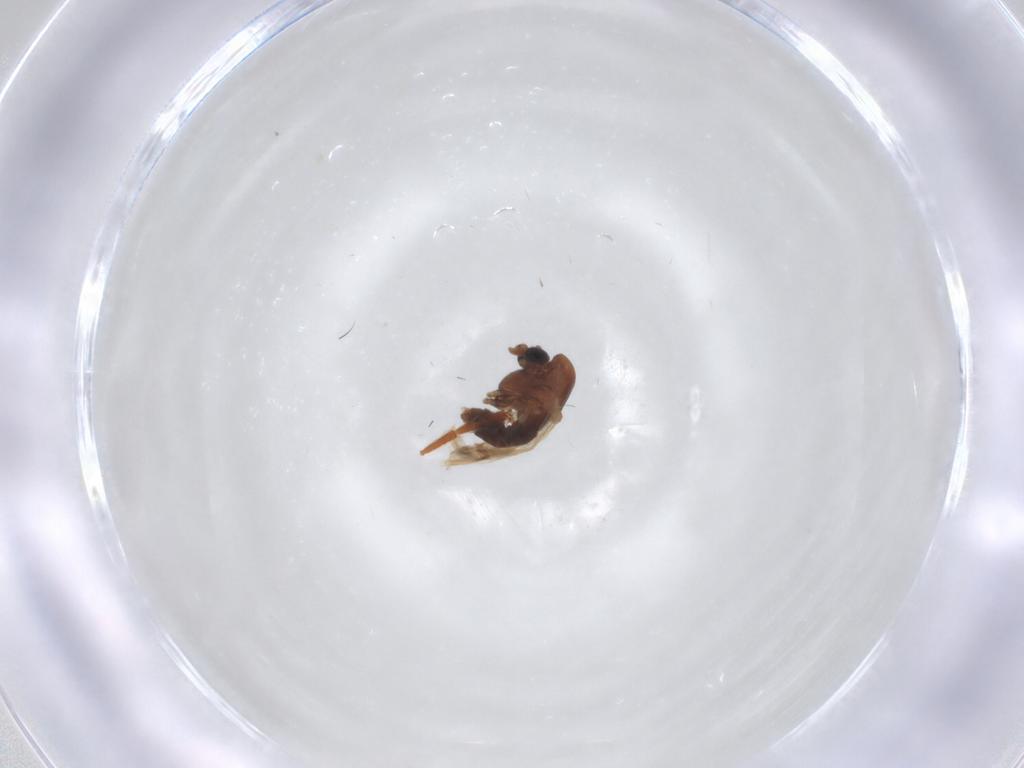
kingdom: Animalia
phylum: Arthropoda
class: Insecta
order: Diptera
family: Chironomidae
